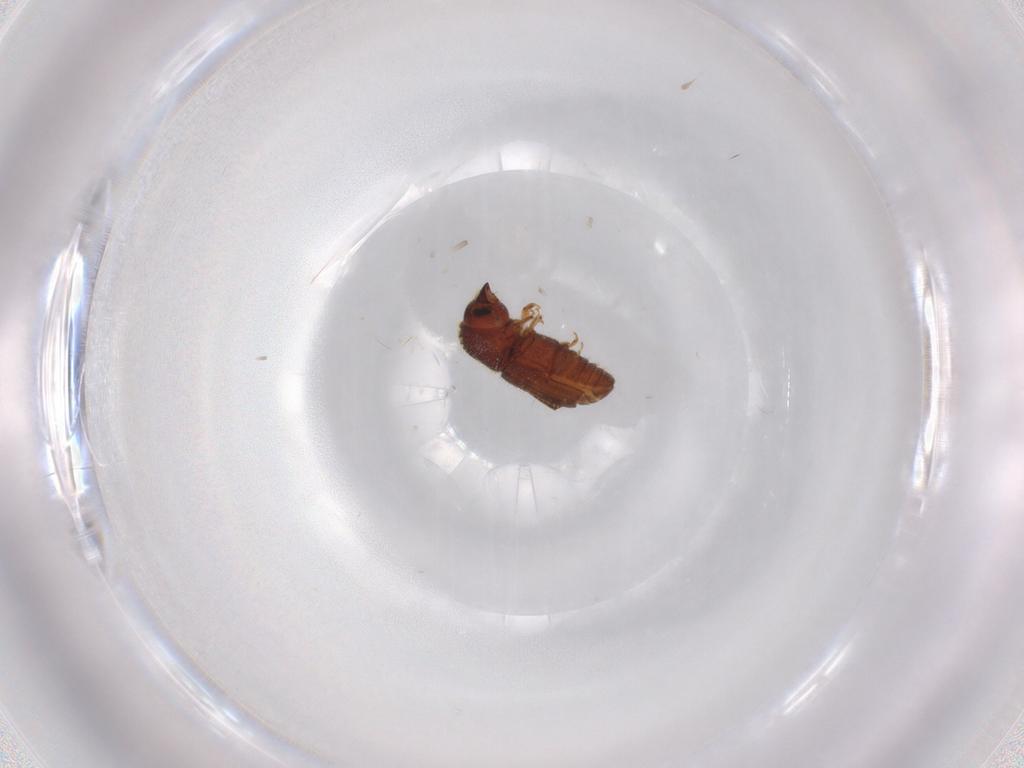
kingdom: Animalia
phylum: Arthropoda
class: Insecta
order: Coleoptera
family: Curculionidae
